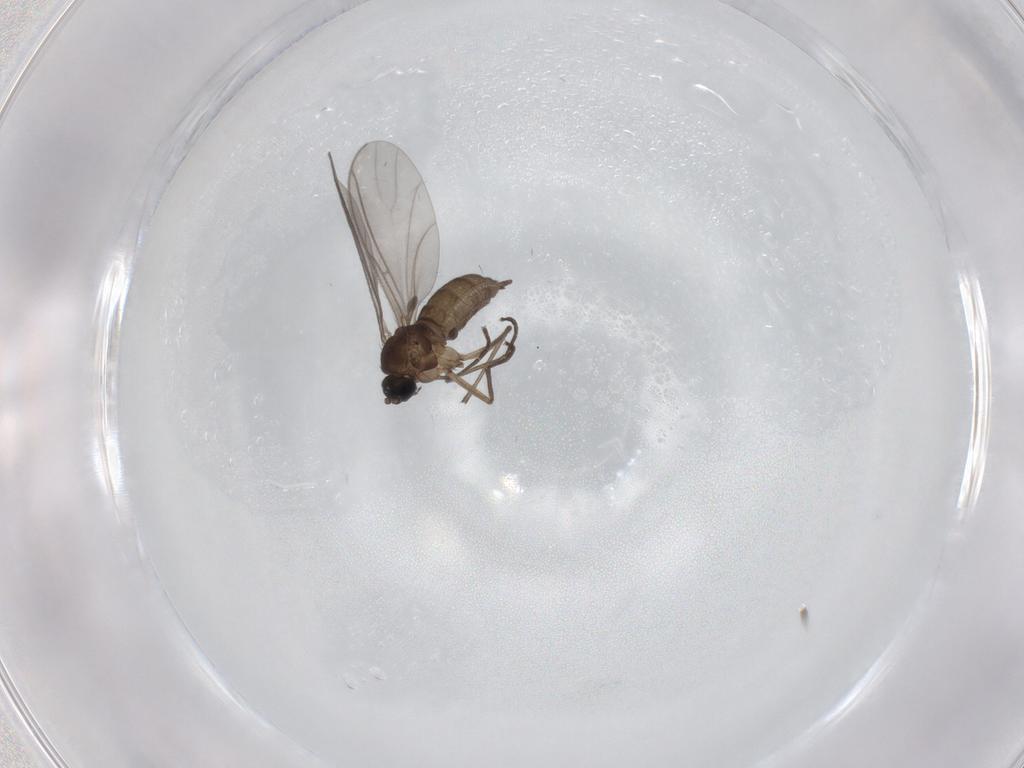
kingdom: Animalia
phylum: Arthropoda
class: Insecta
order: Diptera
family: Sciaridae
